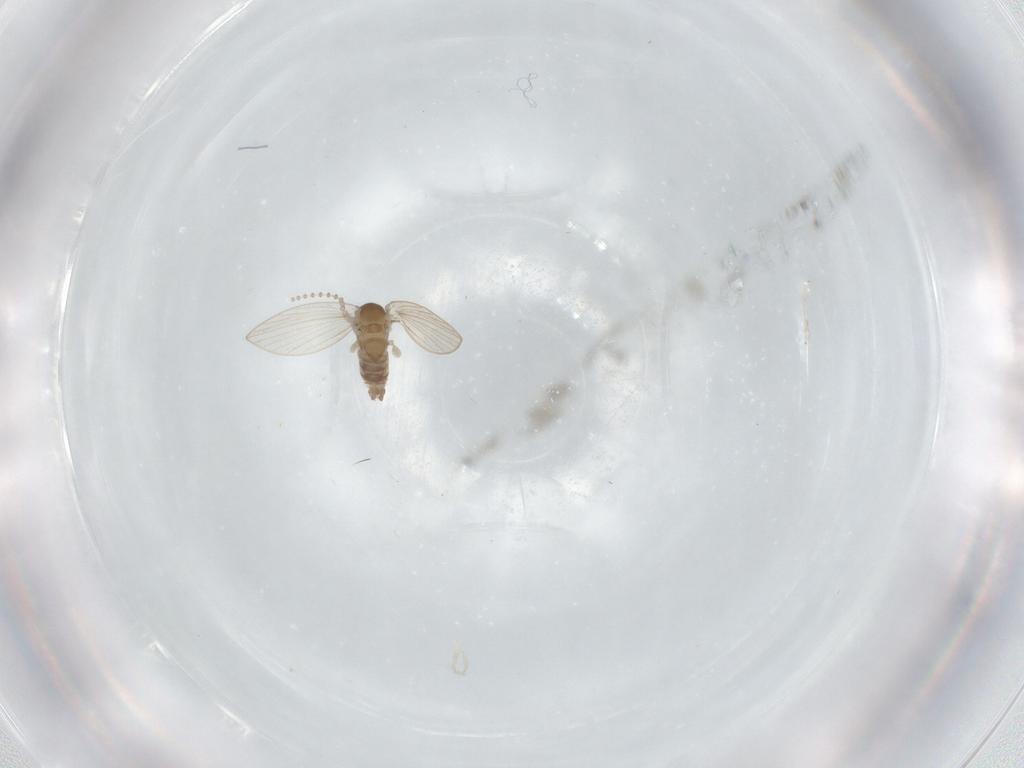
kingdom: Animalia
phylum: Arthropoda
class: Insecta
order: Diptera
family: Psychodidae
